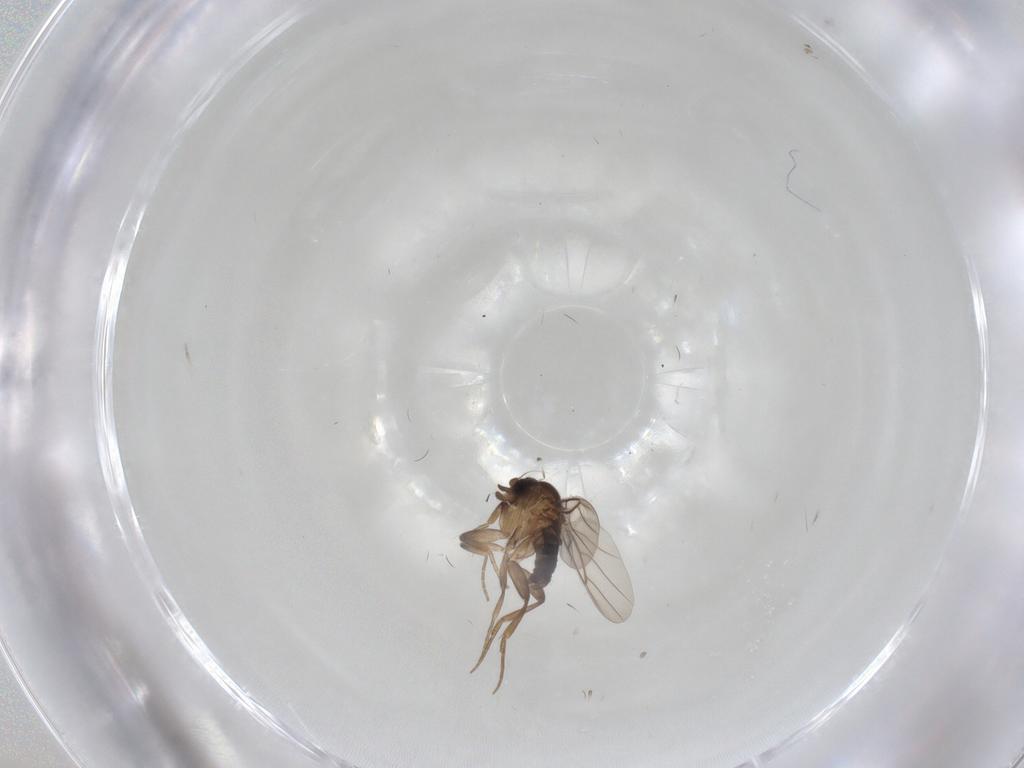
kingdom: Animalia
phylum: Arthropoda
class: Insecta
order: Diptera
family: Phoridae
